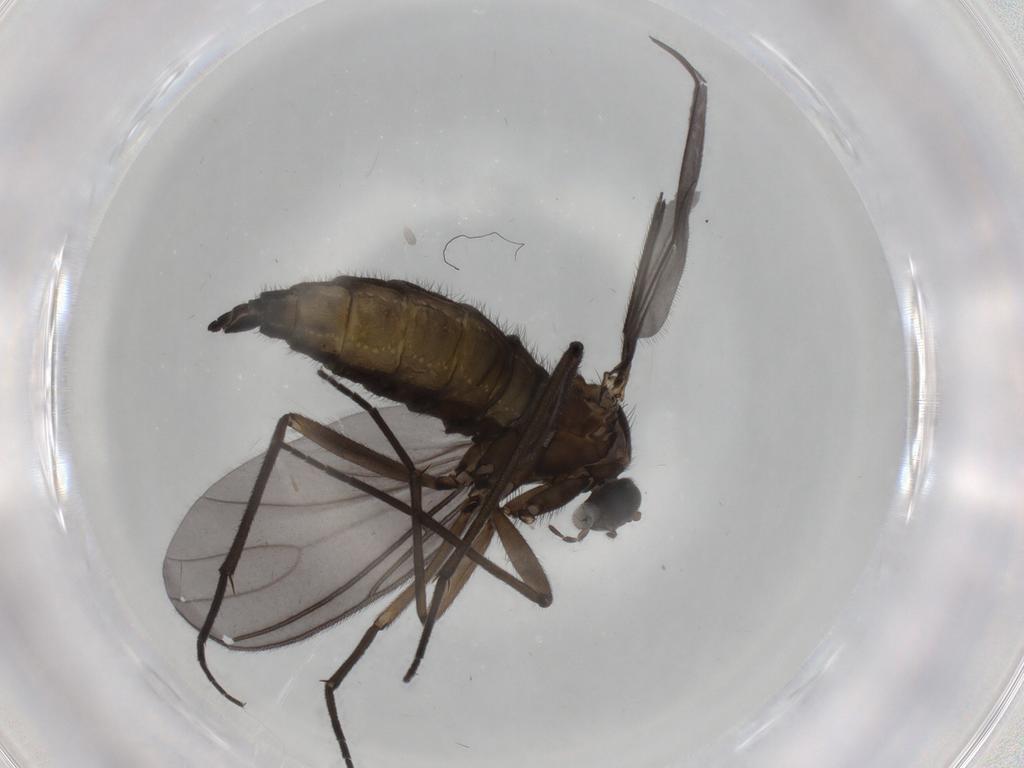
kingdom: Animalia
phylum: Arthropoda
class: Insecta
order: Diptera
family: Sciaridae
